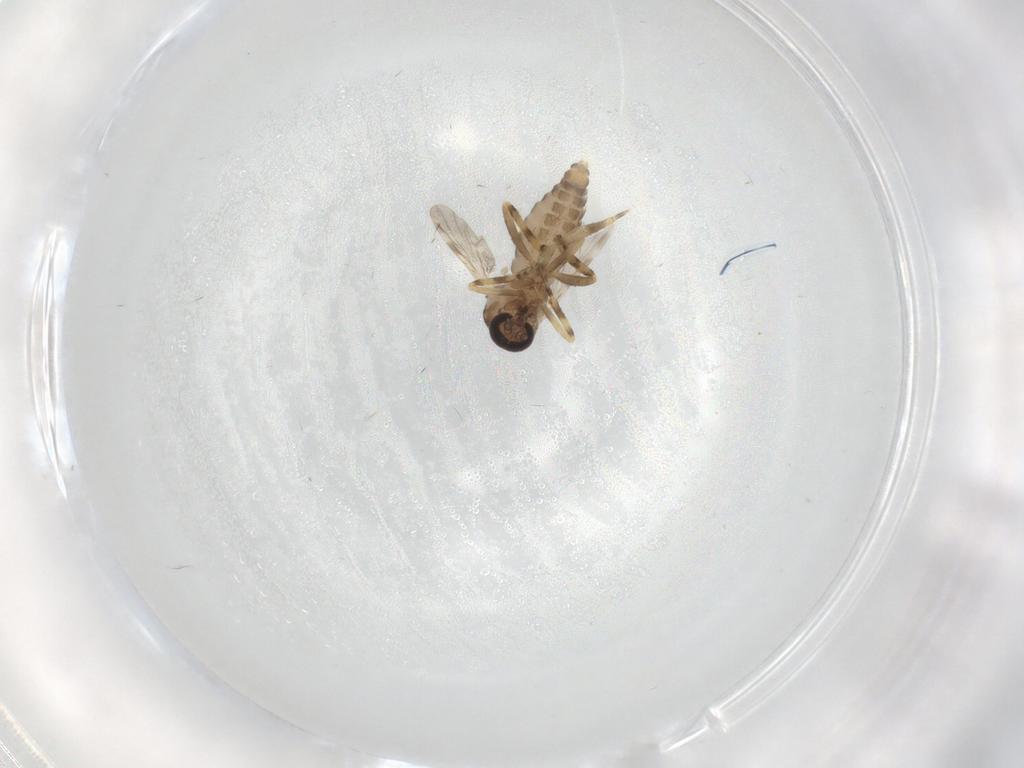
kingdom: Animalia
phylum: Arthropoda
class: Insecta
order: Diptera
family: Ceratopogonidae
